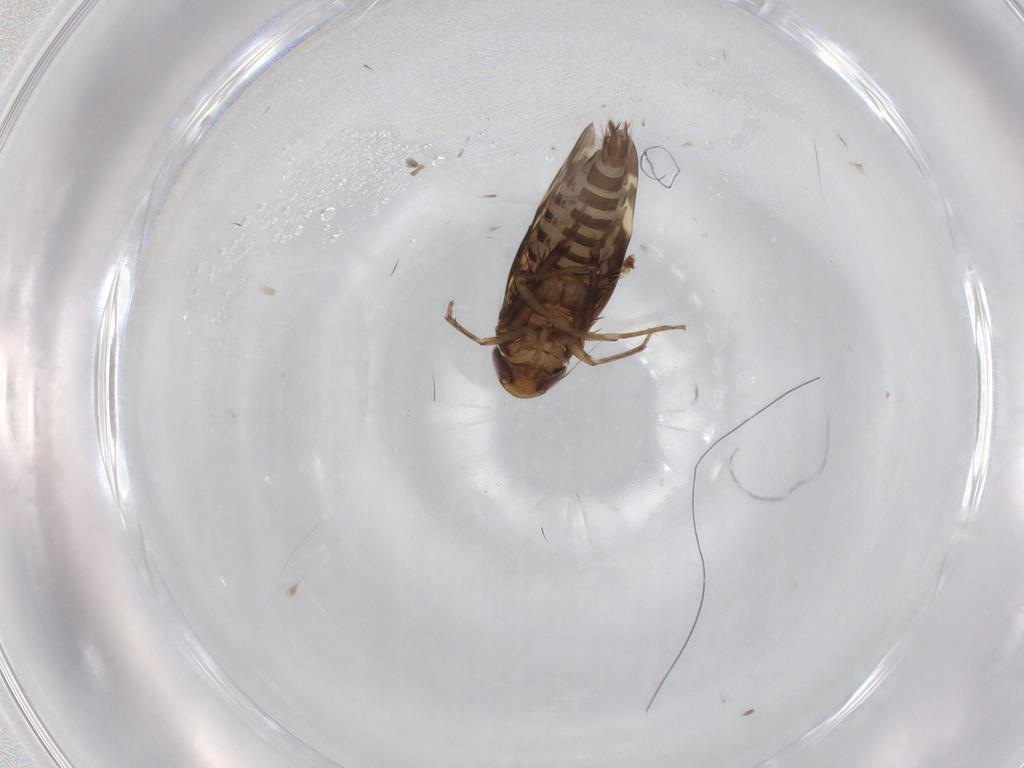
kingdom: Animalia
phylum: Arthropoda
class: Insecta
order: Hemiptera
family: Cicadellidae
